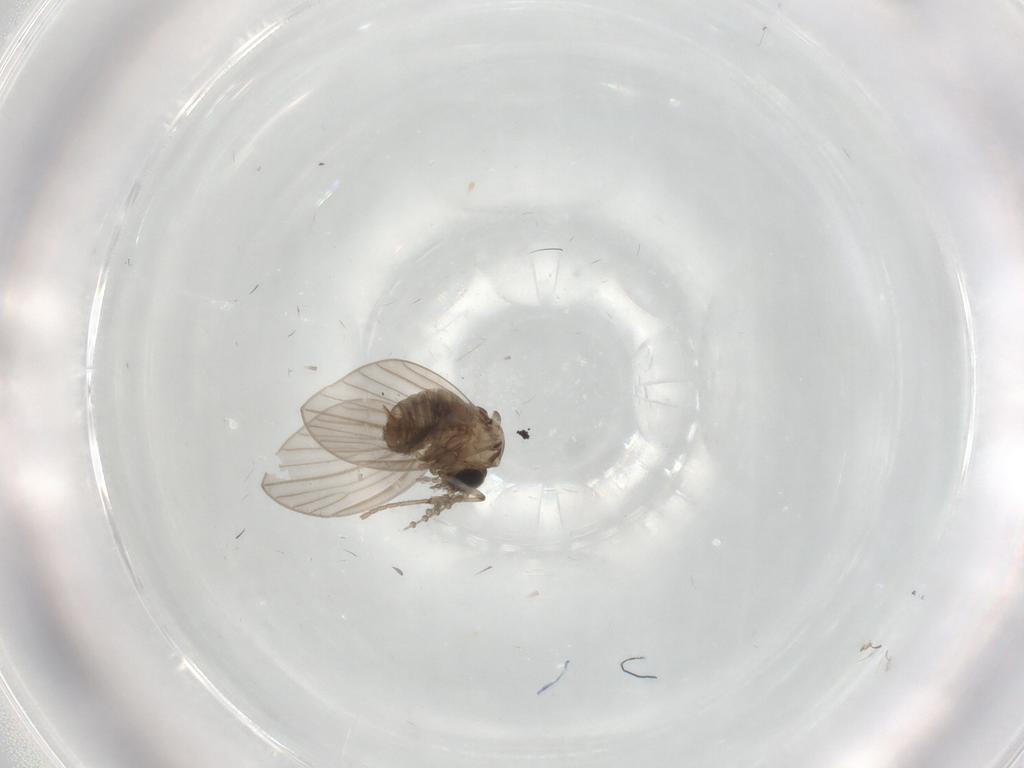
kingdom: Animalia
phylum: Arthropoda
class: Insecta
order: Diptera
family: Psychodidae
